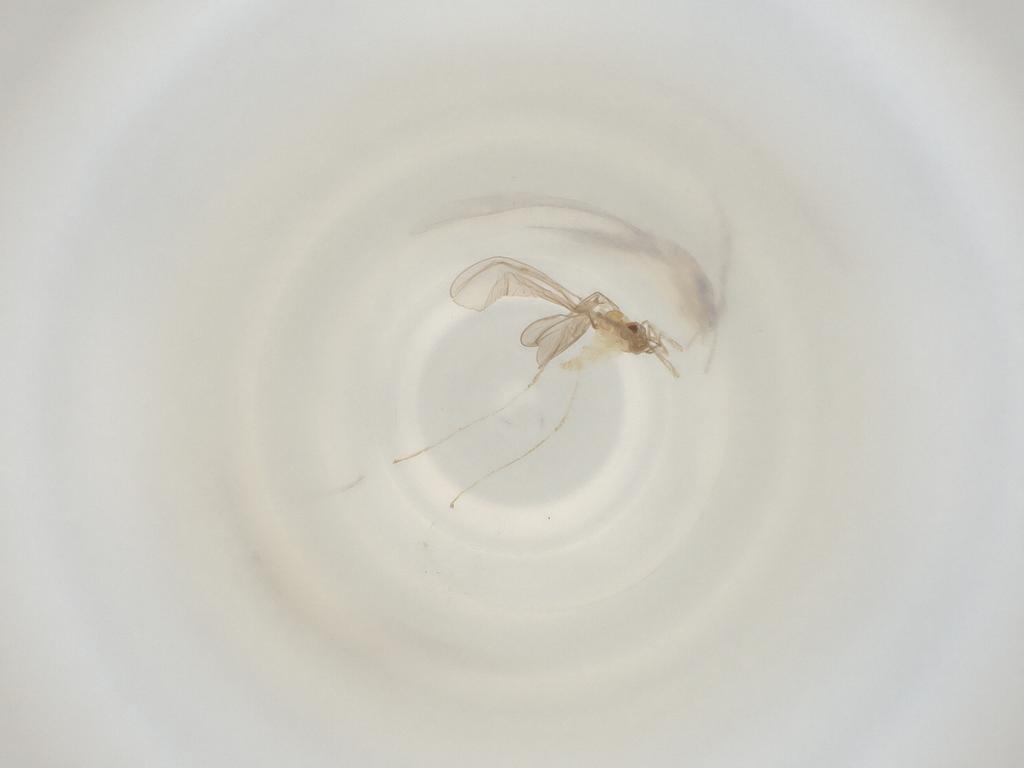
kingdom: Animalia
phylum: Arthropoda
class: Insecta
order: Diptera
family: Cecidomyiidae
